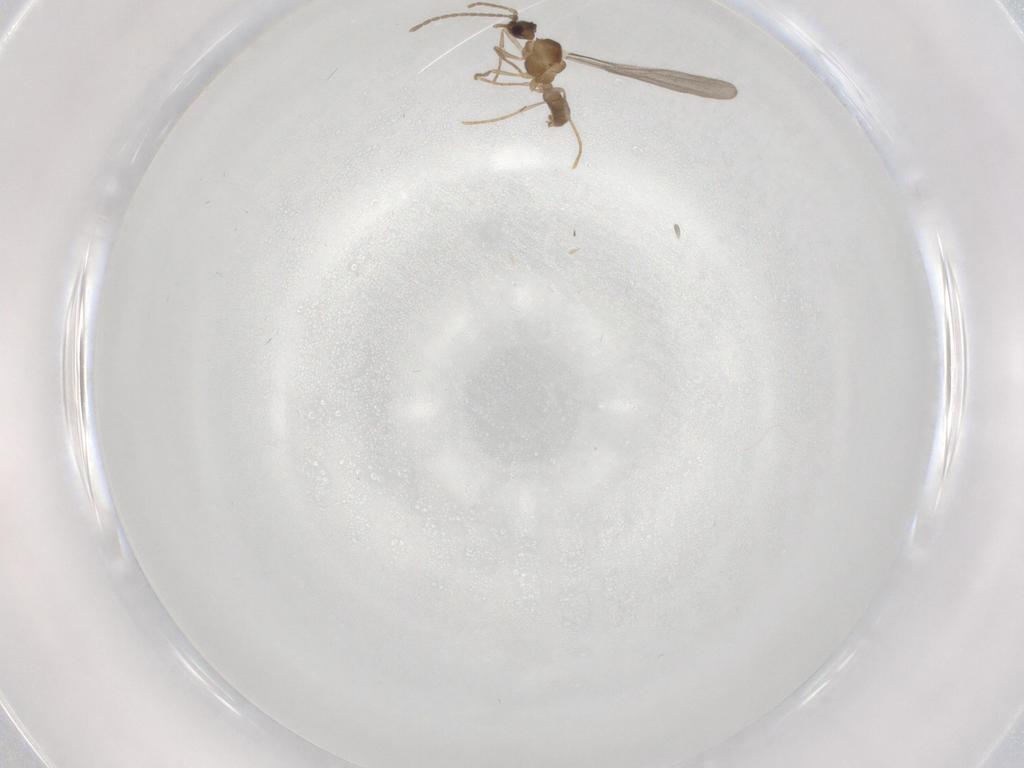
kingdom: Animalia
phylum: Arthropoda
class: Insecta
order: Hymenoptera
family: Formicidae
